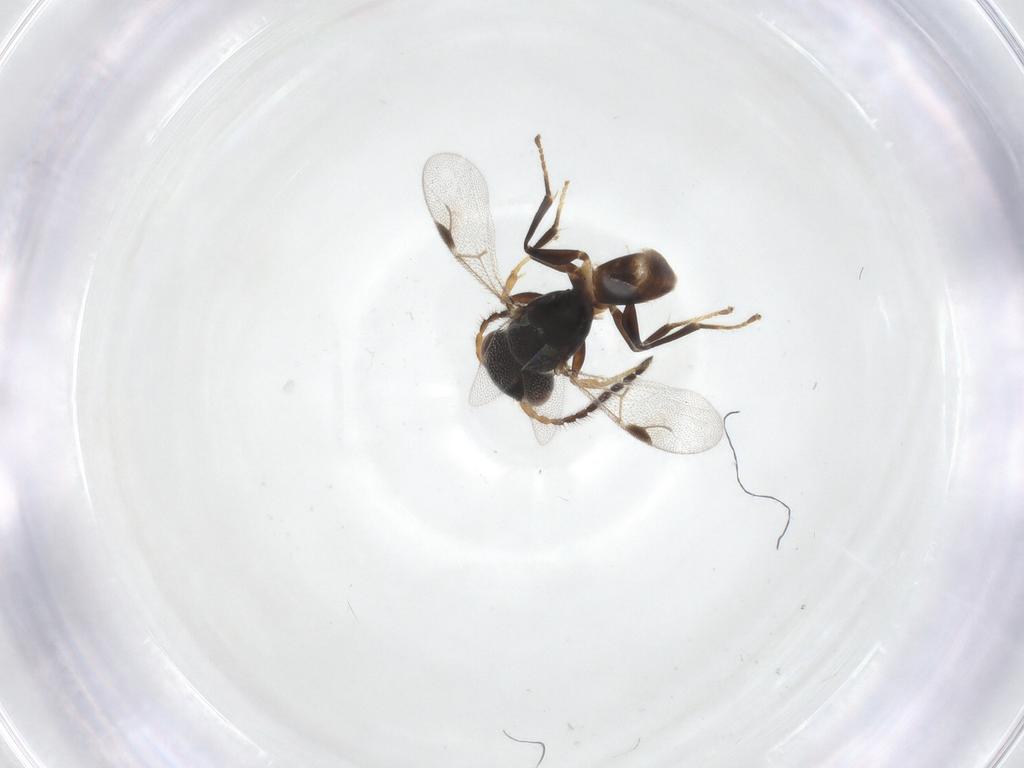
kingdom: Animalia
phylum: Arthropoda
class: Insecta
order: Hymenoptera
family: Dryinidae
